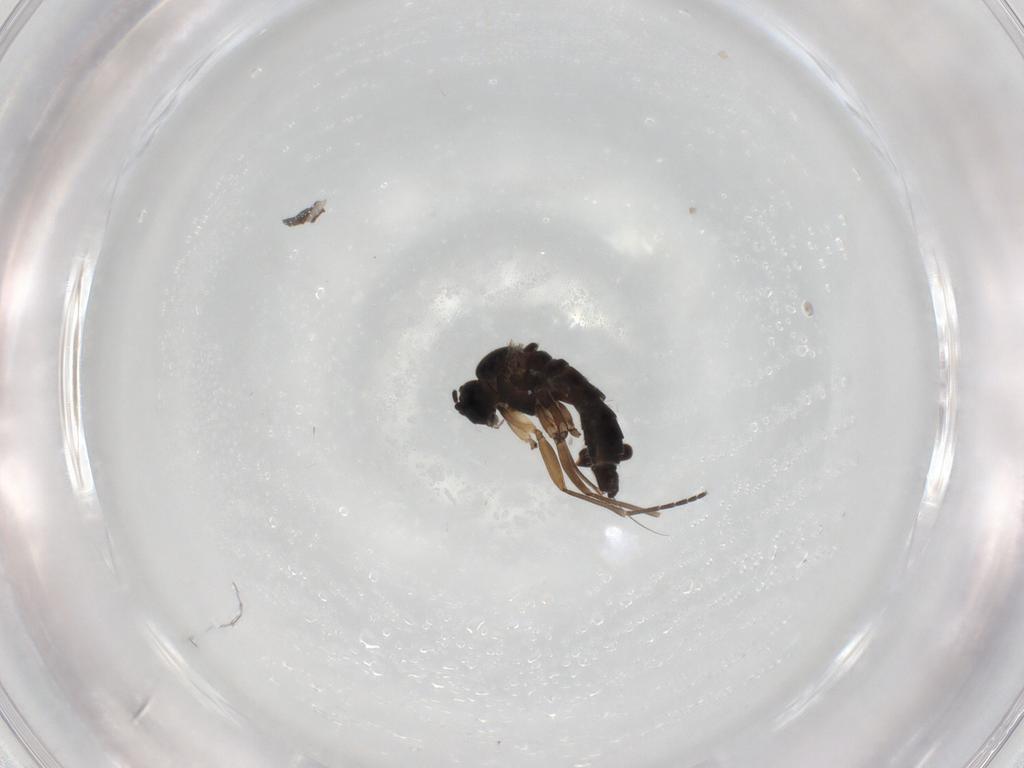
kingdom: Animalia
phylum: Arthropoda
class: Insecta
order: Diptera
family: Sciaridae
